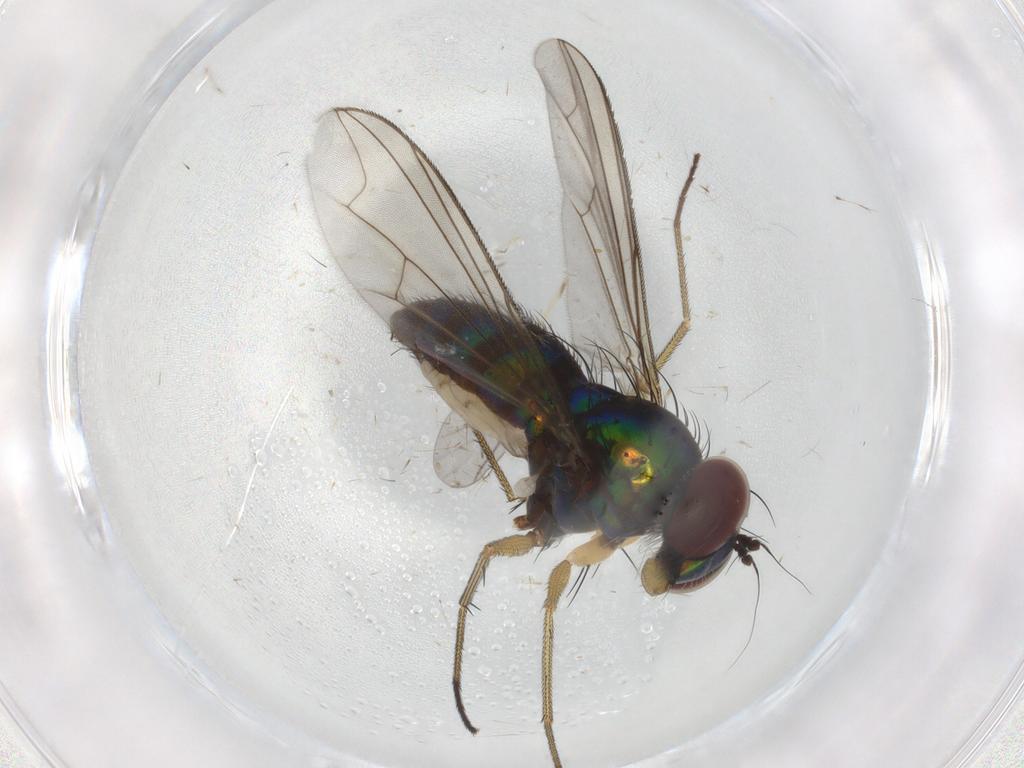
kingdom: Animalia
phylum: Arthropoda
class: Insecta
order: Diptera
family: Dolichopodidae
